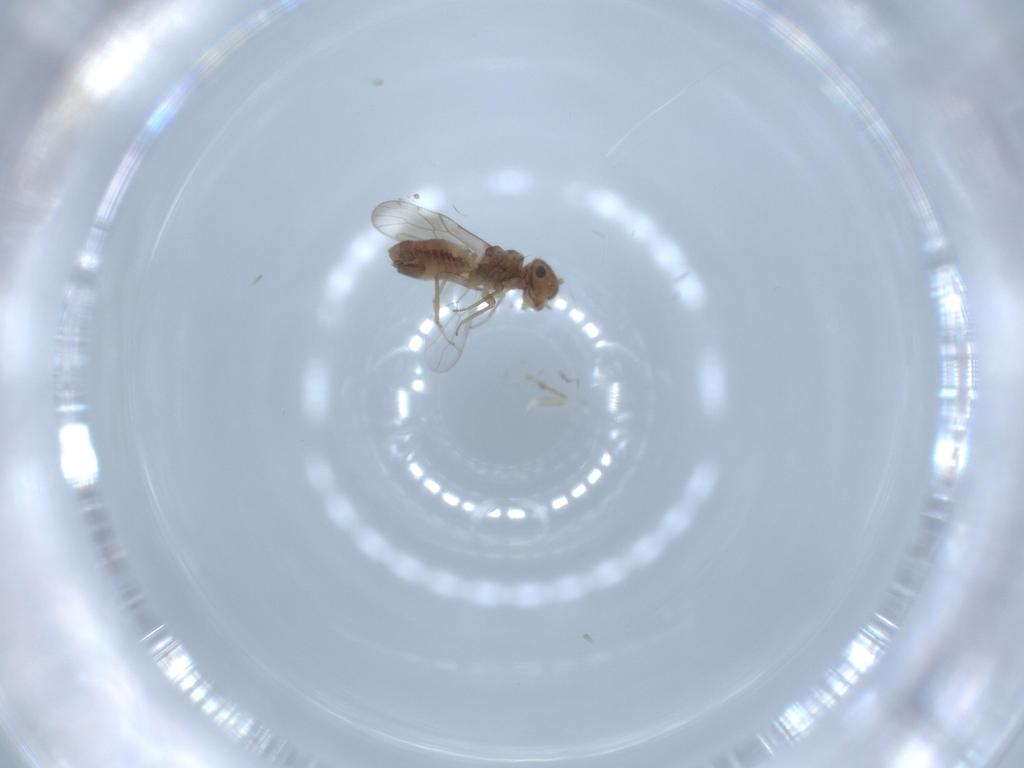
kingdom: Animalia
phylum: Arthropoda
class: Insecta
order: Psocodea
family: Ectopsocidae
